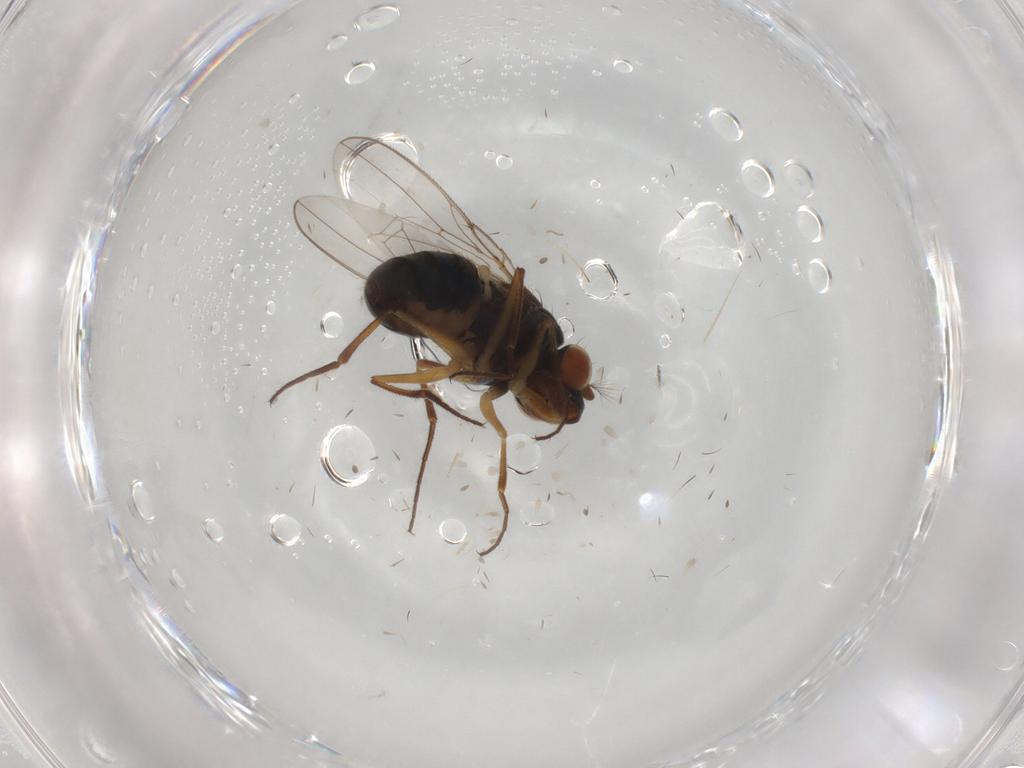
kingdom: Animalia
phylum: Arthropoda
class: Insecta
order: Diptera
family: Ephydridae
